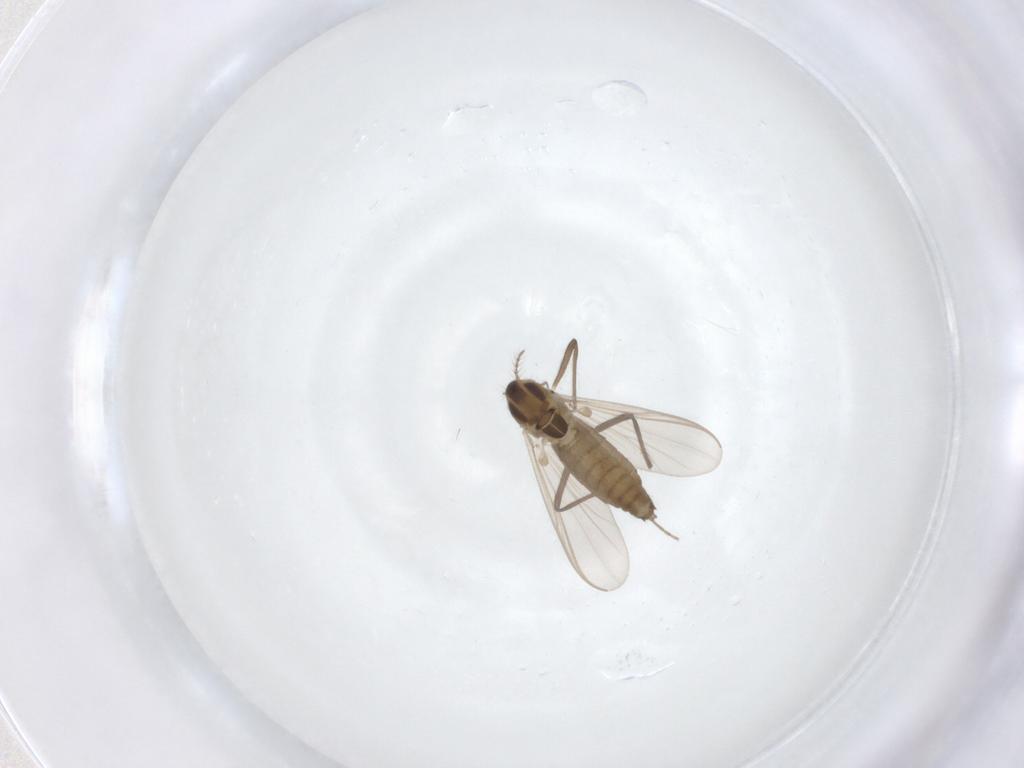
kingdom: Animalia
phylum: Arthropoda
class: Insecta
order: Diptera
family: Chironomidae
